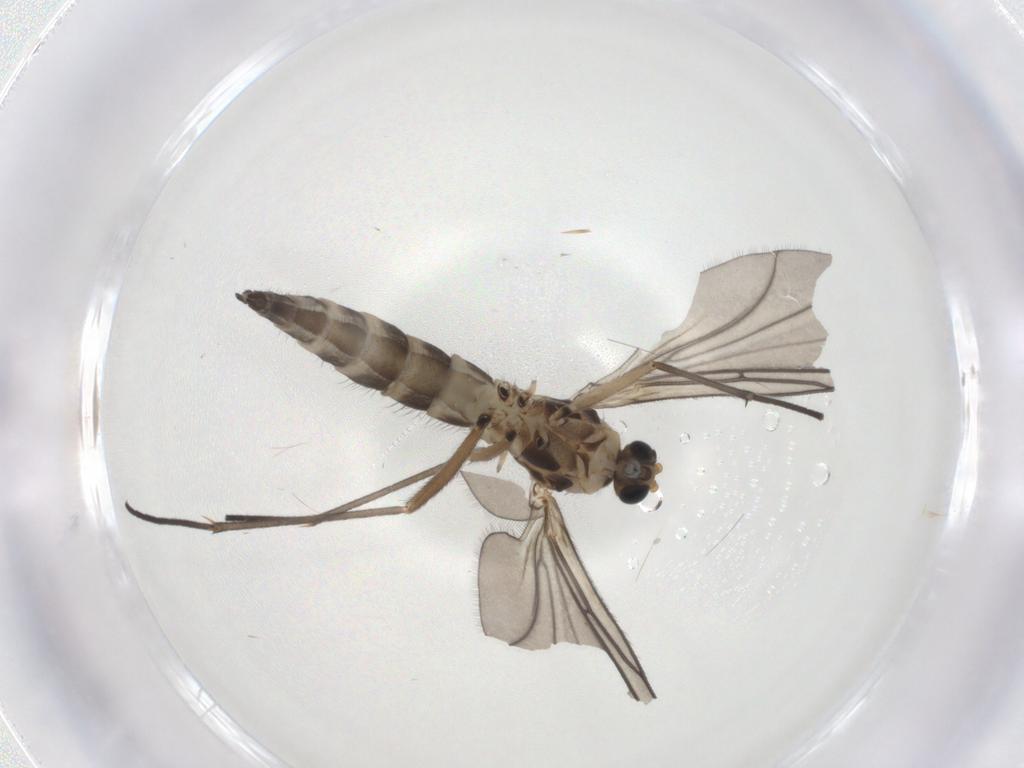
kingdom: Animalia
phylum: Arthropoda
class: Insecta
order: Diptera
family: Sciaridae
